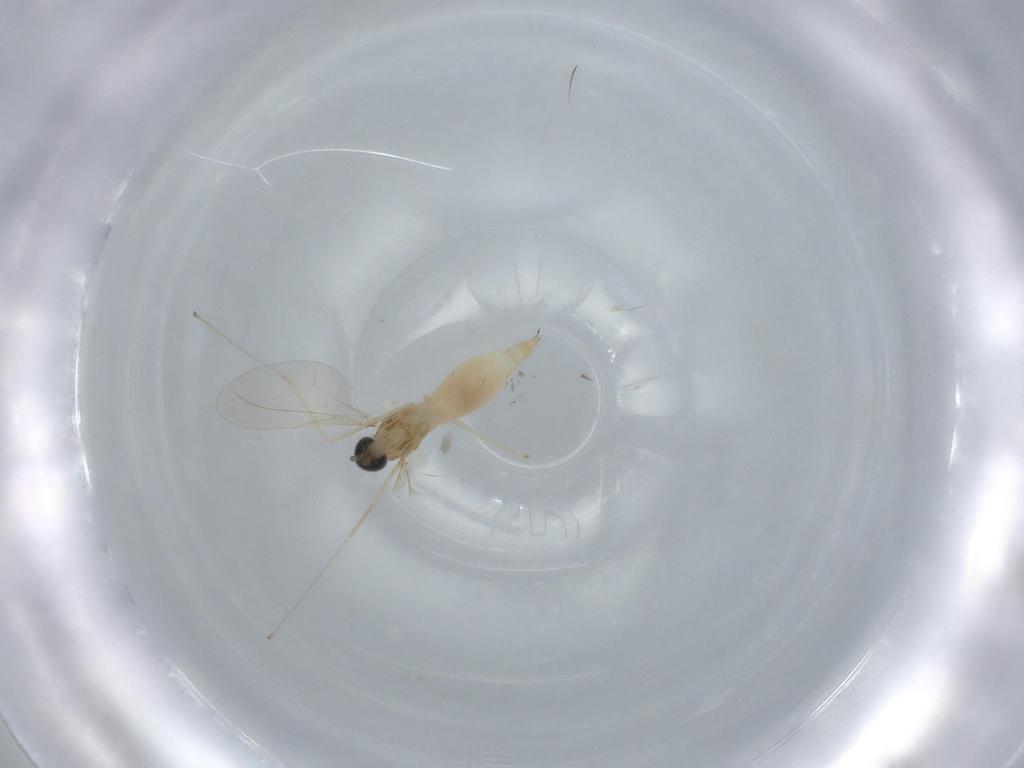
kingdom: Animalia
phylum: Arthropoda
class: Insecta
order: Diptera
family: Cecidomyiidae
